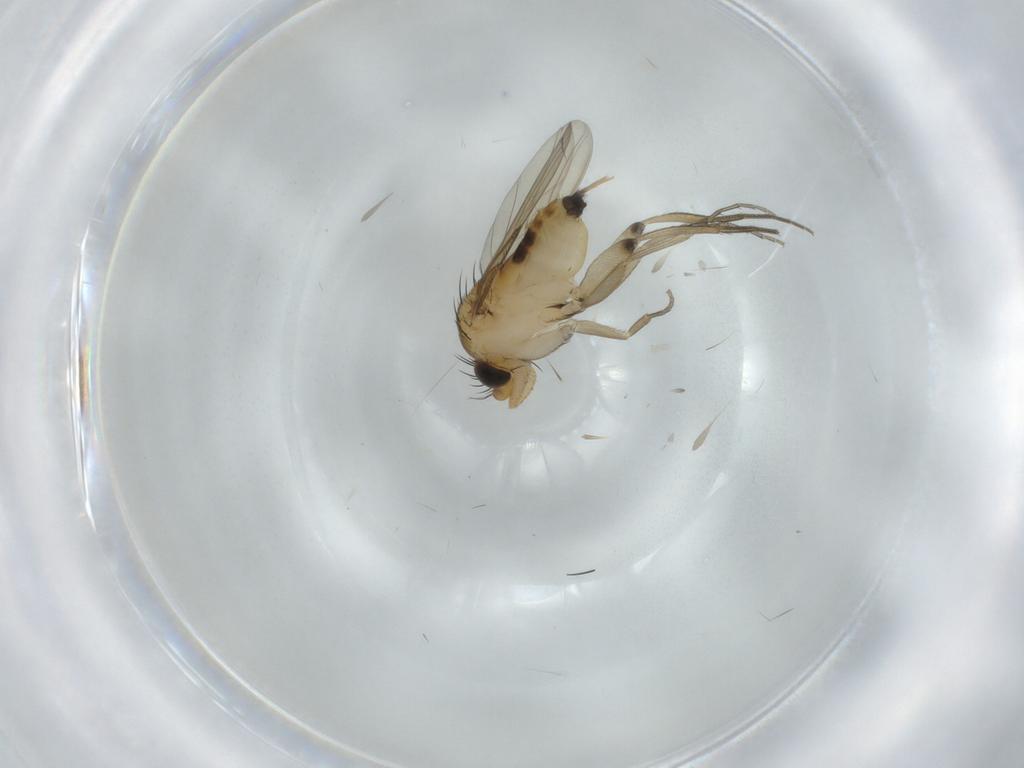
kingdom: Animalia
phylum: Arthropoda
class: Insecta
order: Diptera
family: Phoridae
